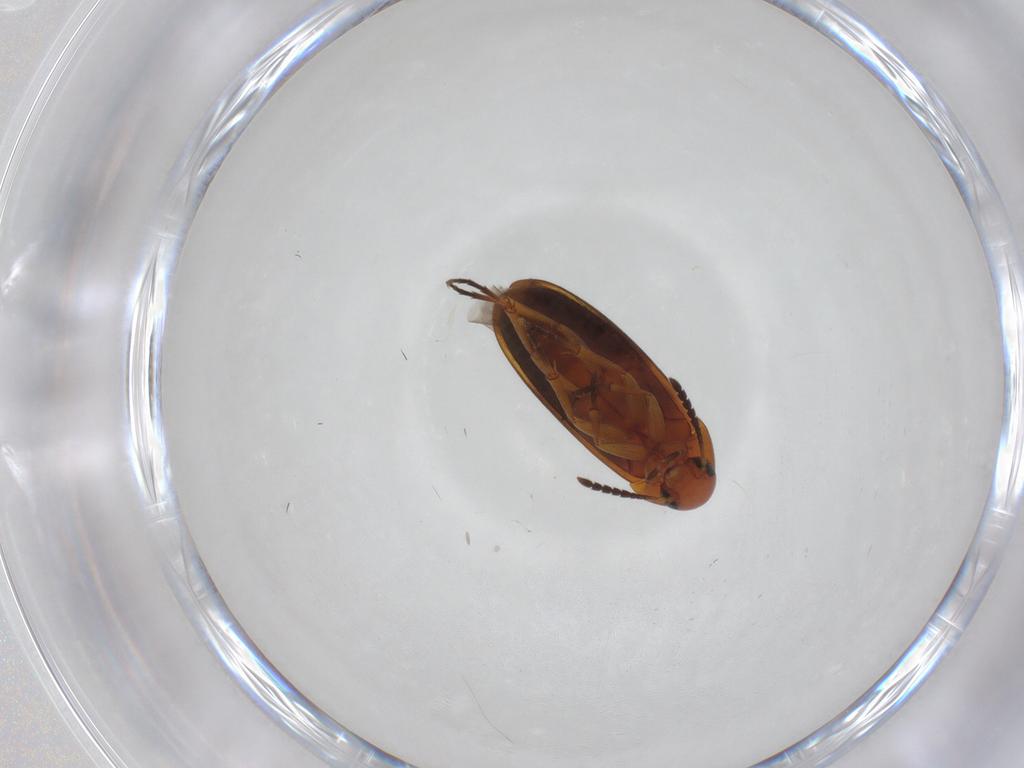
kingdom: Animalia
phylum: Arthropoda
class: Insecta
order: Coleoptera
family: Scraptiidae
